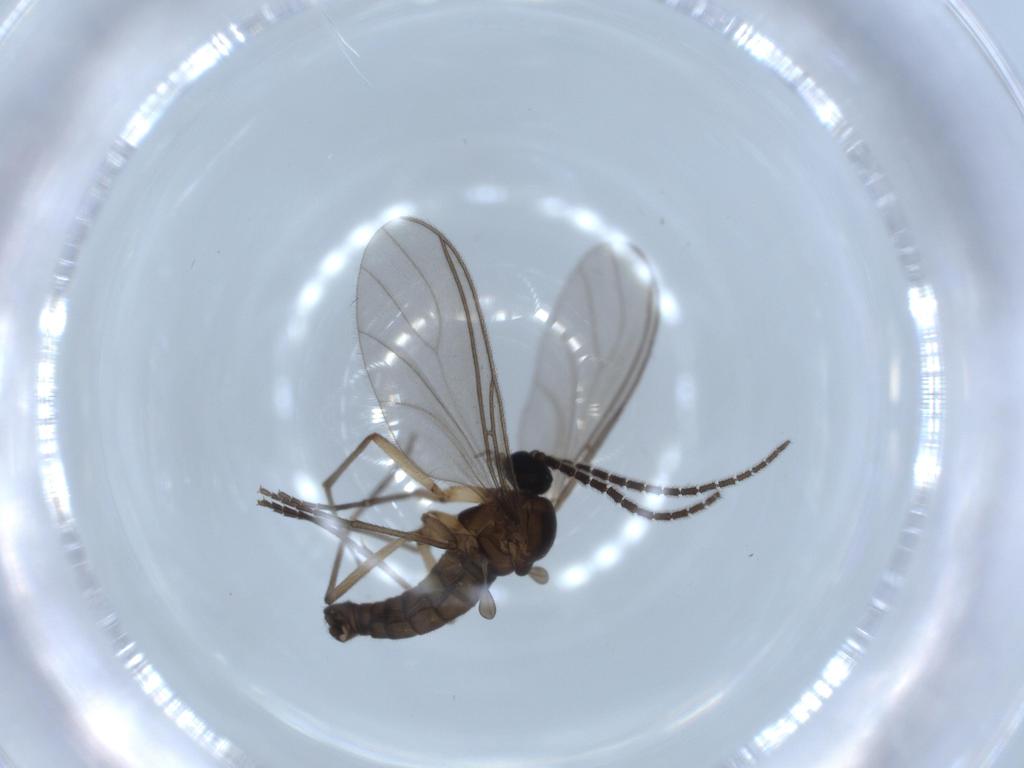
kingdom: Animalia
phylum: Arthropoda
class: Insecta
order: Diptera
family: Sciaridae
